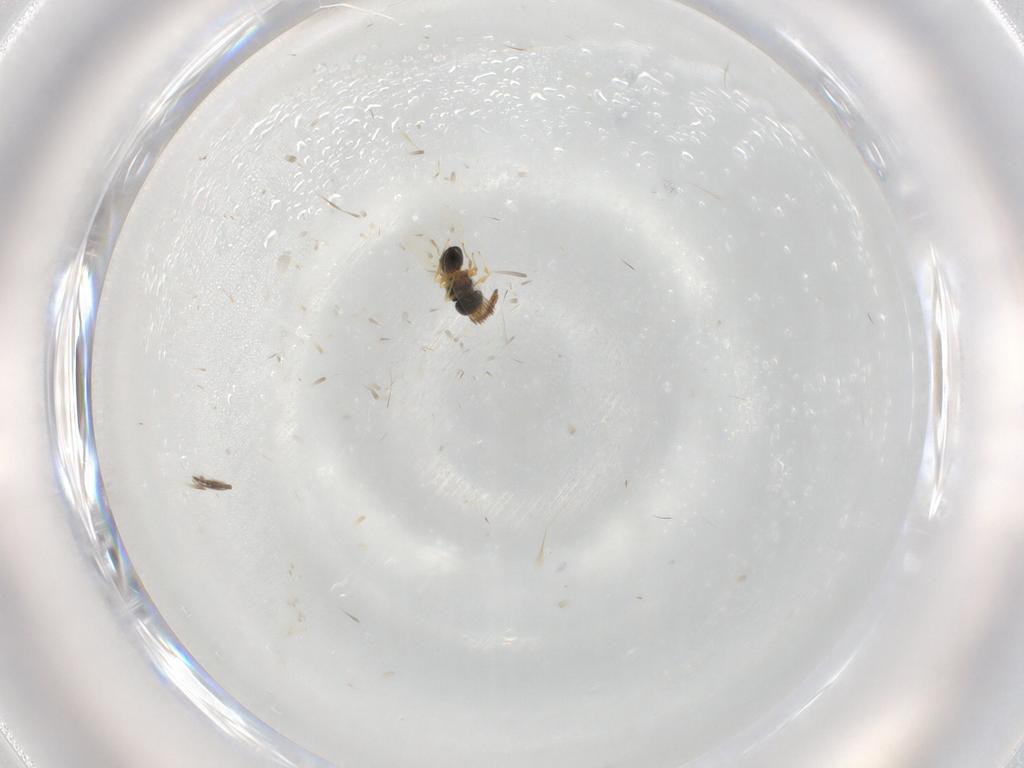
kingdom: Animalia
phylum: Arthropoda
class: Insecta
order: Hymenoptera
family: Scelionidae
